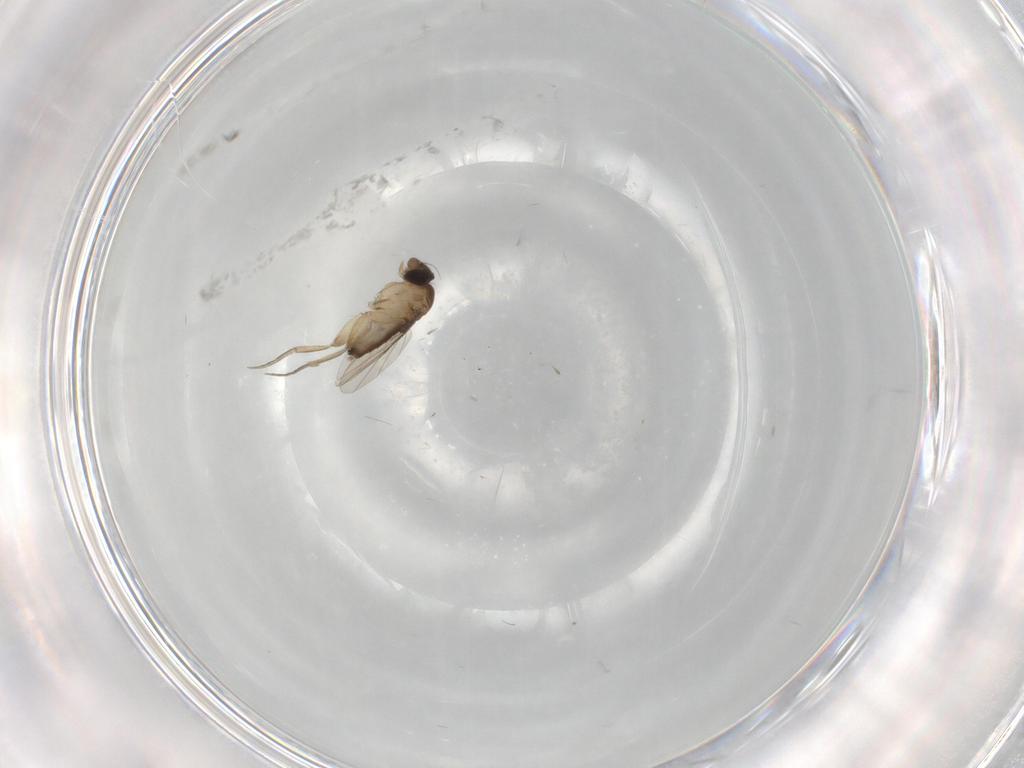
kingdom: Animalia
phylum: Arthropoda
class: Insecta
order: Diptera
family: Phoridae
